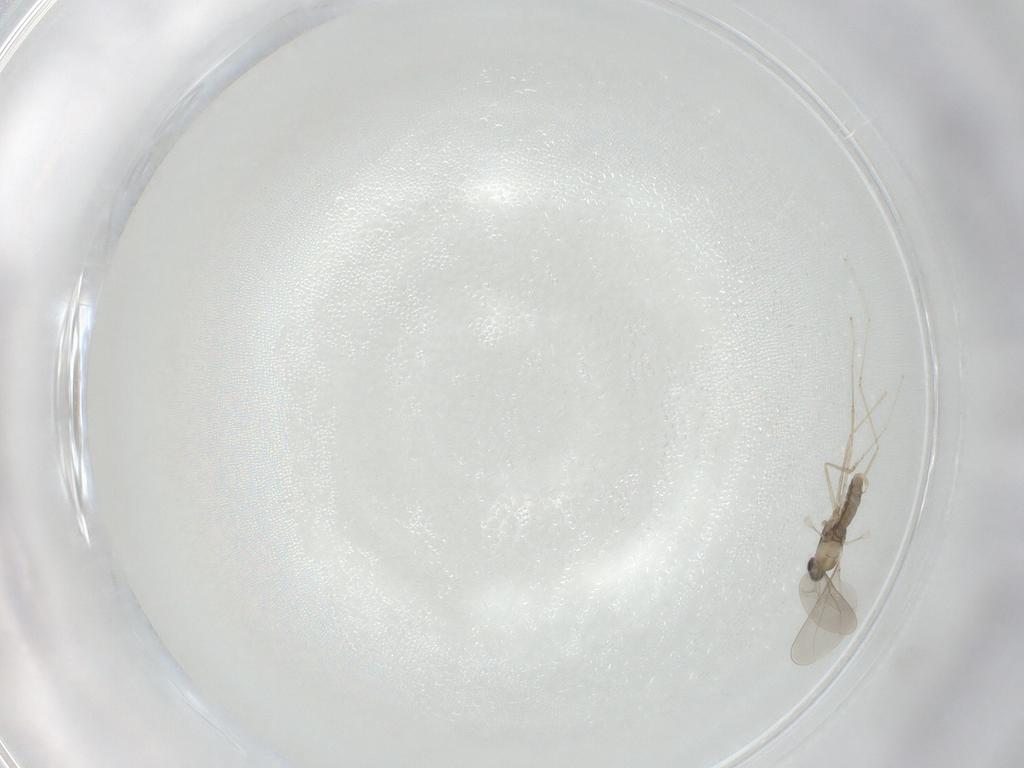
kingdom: Animalia
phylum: Arthropoda
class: Insecta
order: Diptera
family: Cecidomyiidae
